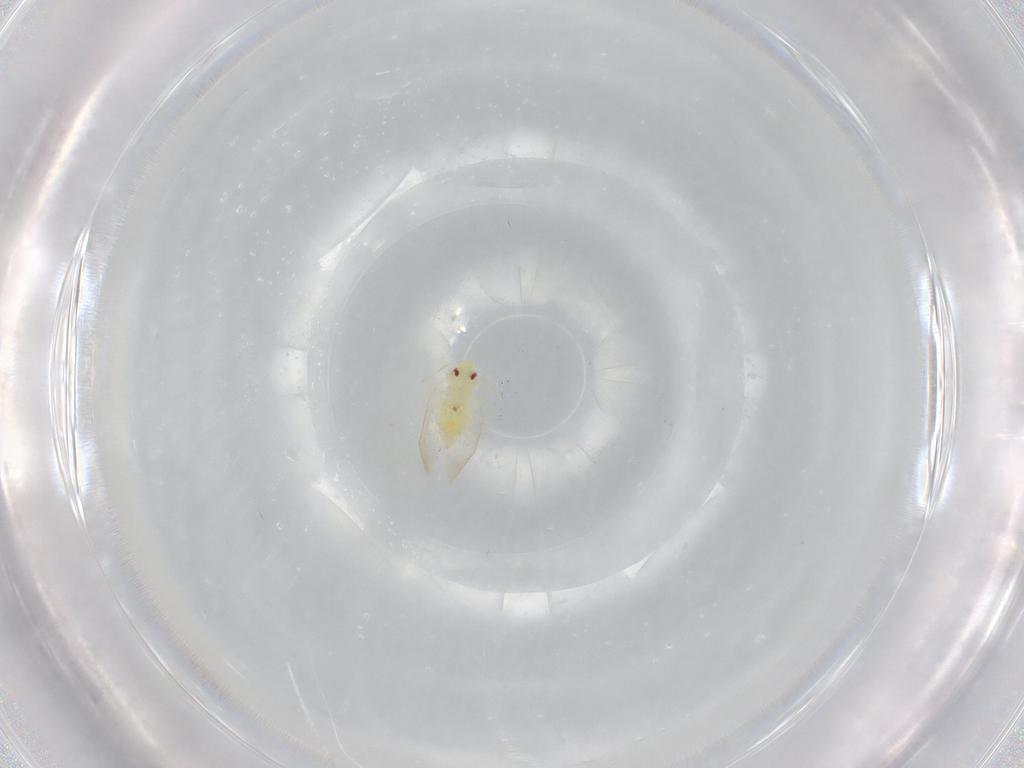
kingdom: Animalia
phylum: Arthropoda
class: Insecta
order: Hemiptera
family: Aleyrodidae
